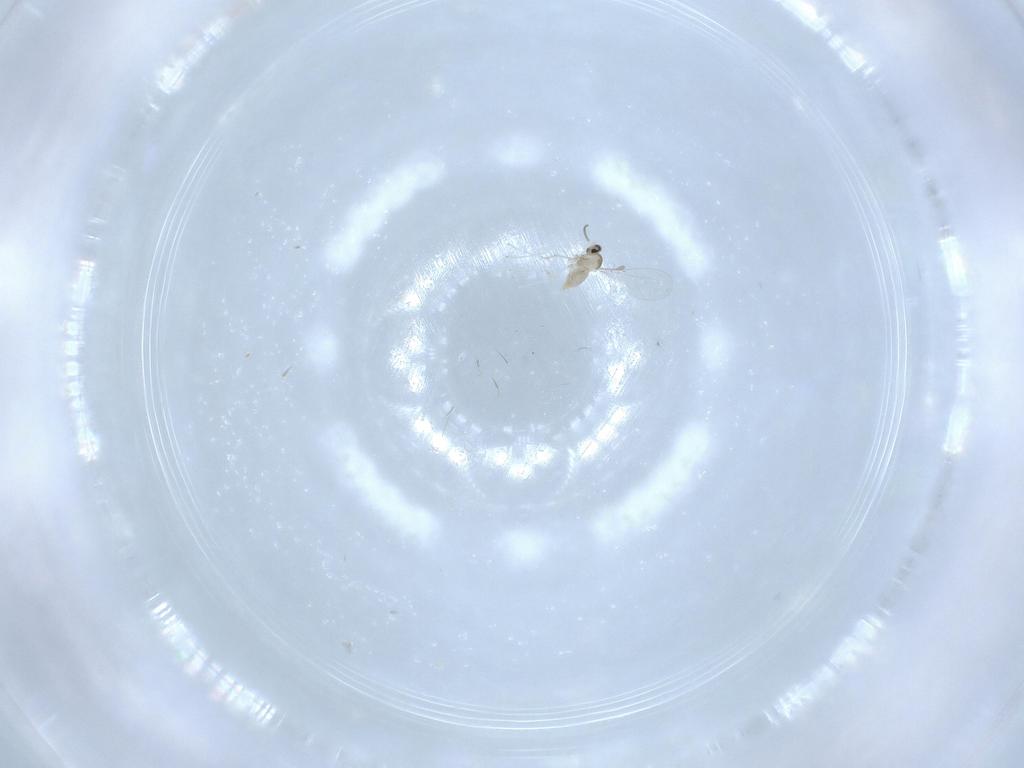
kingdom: Animalia
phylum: Arthropoda
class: Insecta
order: Diptera
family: Cecidomyiidae
